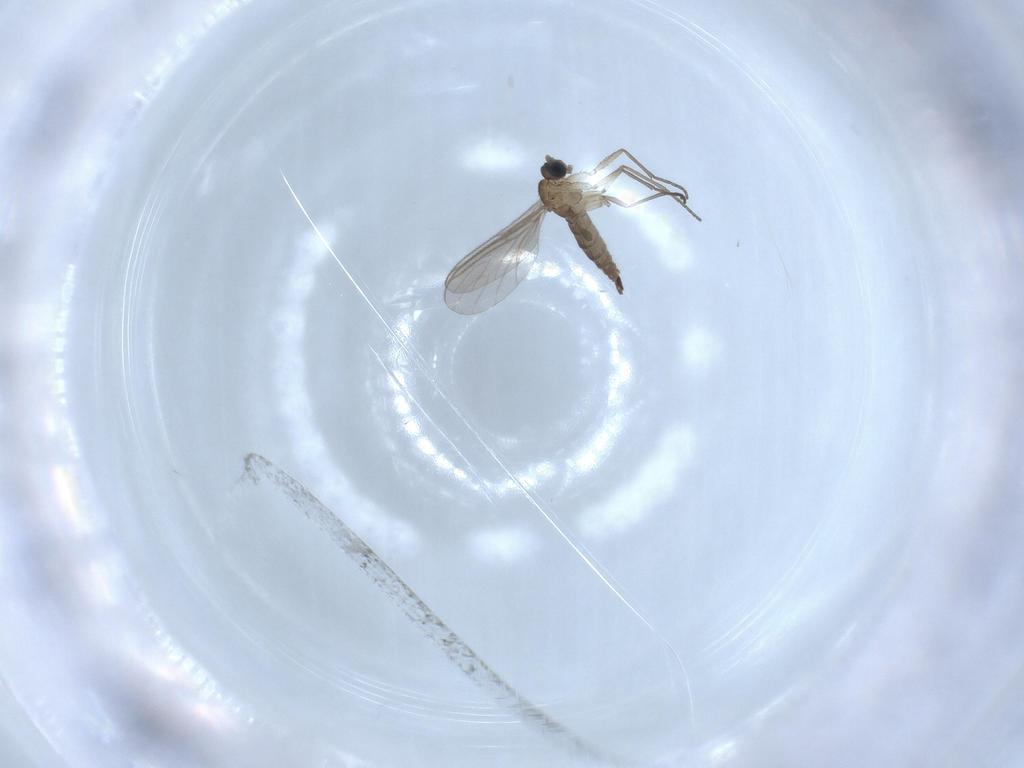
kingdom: Animalia
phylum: Arthropoda
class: Insecta
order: Diptera
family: Sciaridae
